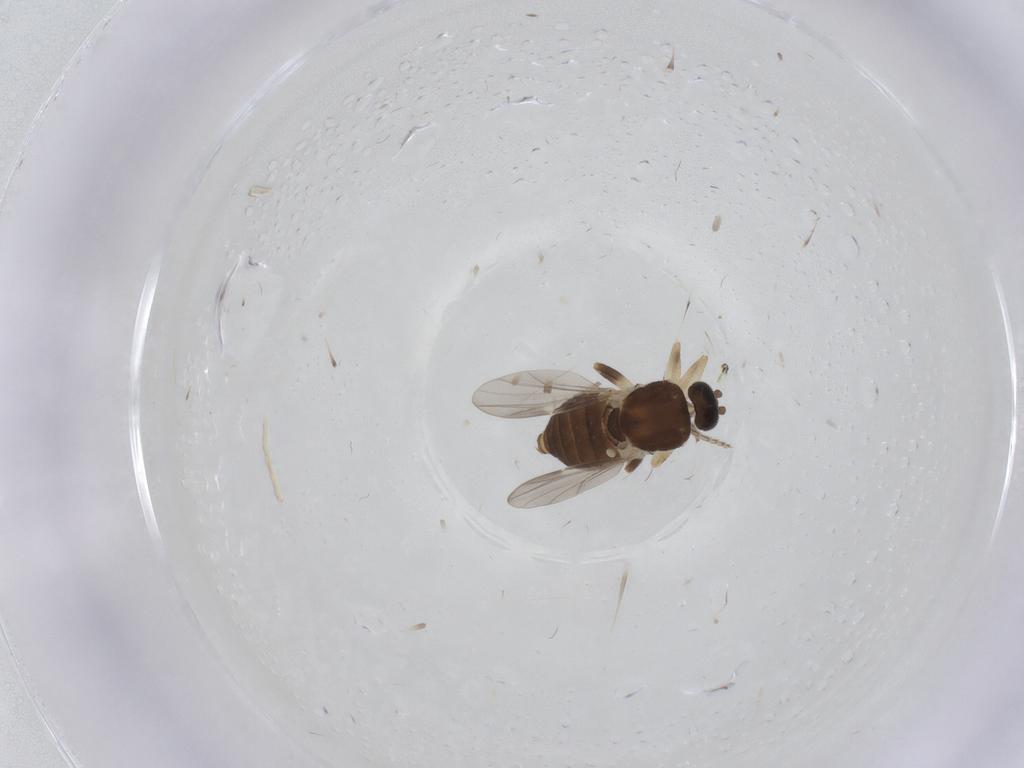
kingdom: Animalia
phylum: Arthropoda
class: Insecta
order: Diptera
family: Ceratopogonidae
